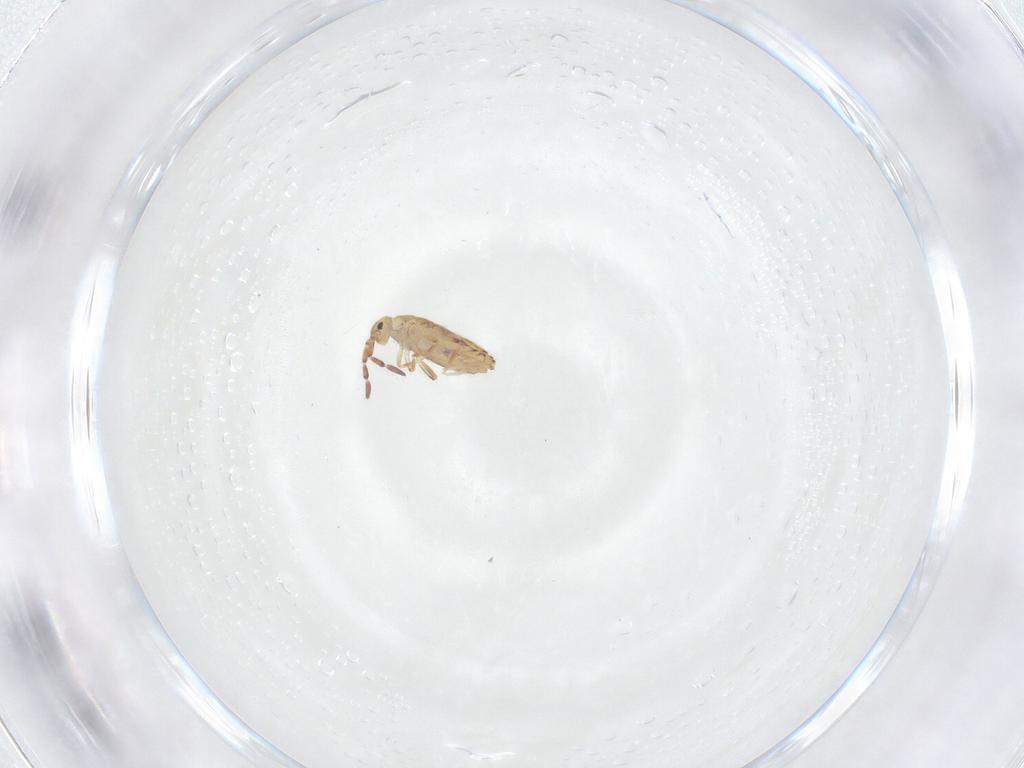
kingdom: Animalia
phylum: Arthropoda
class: Collembola
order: Entomobryomorpha
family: Entomobryidae
